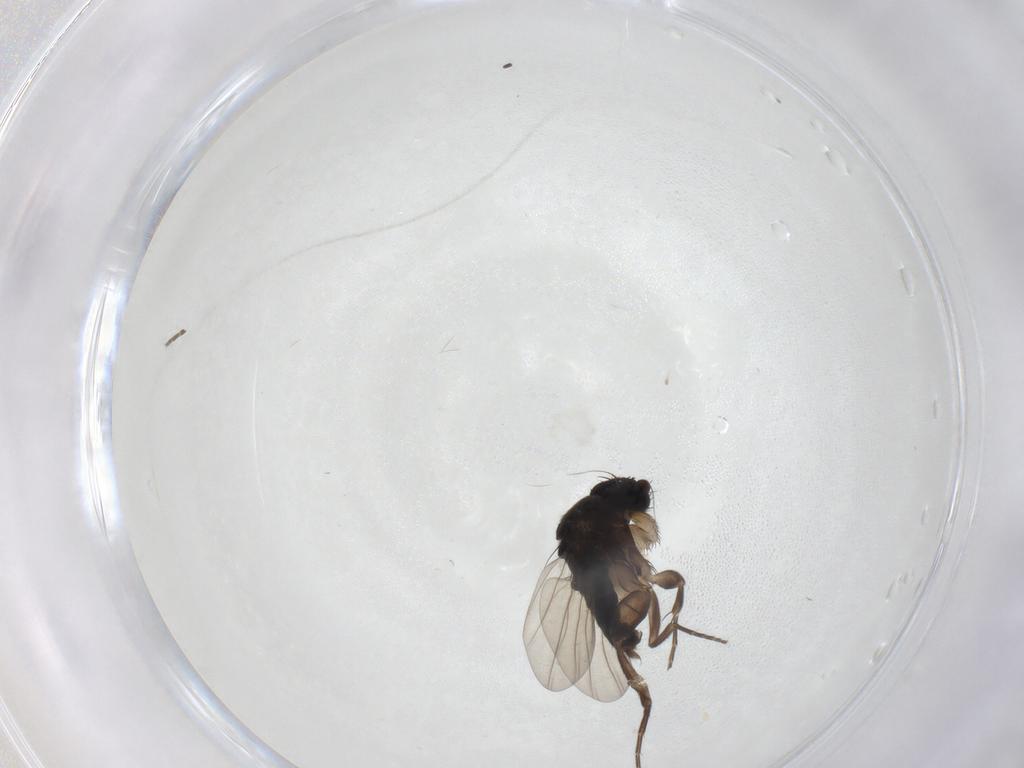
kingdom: Animalia
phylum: Arthropoda
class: Insecta
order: Diptera
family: Phoridae
